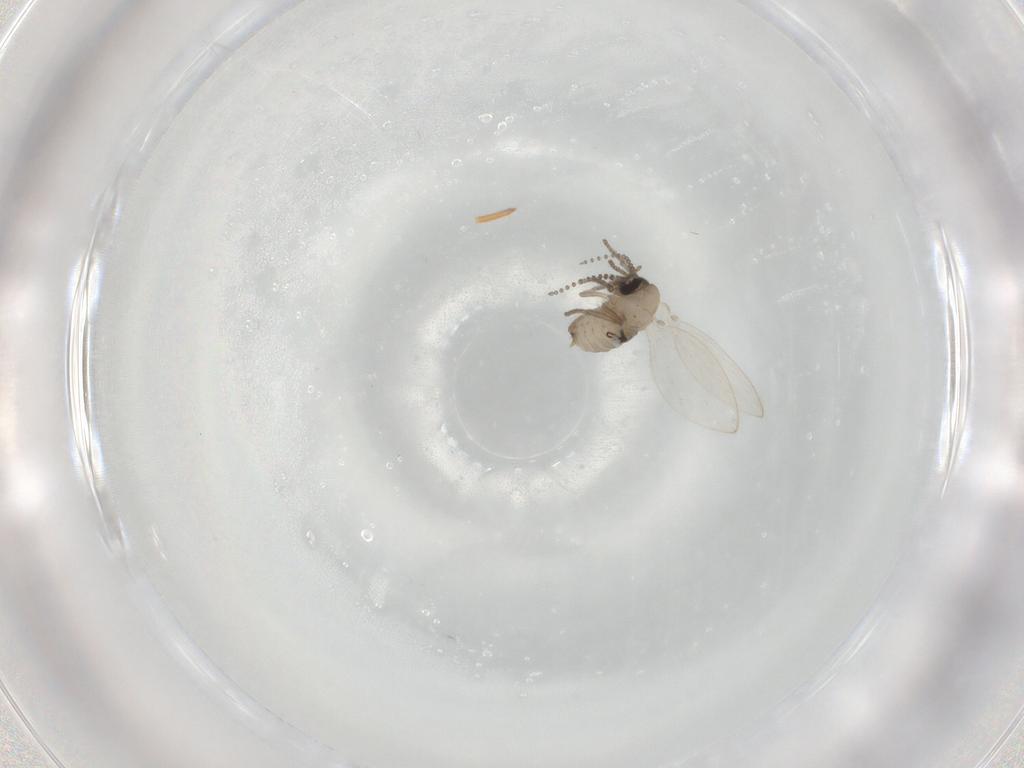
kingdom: Animalia
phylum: Arthropoda
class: Insecta
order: Diptera
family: Psychodidae
